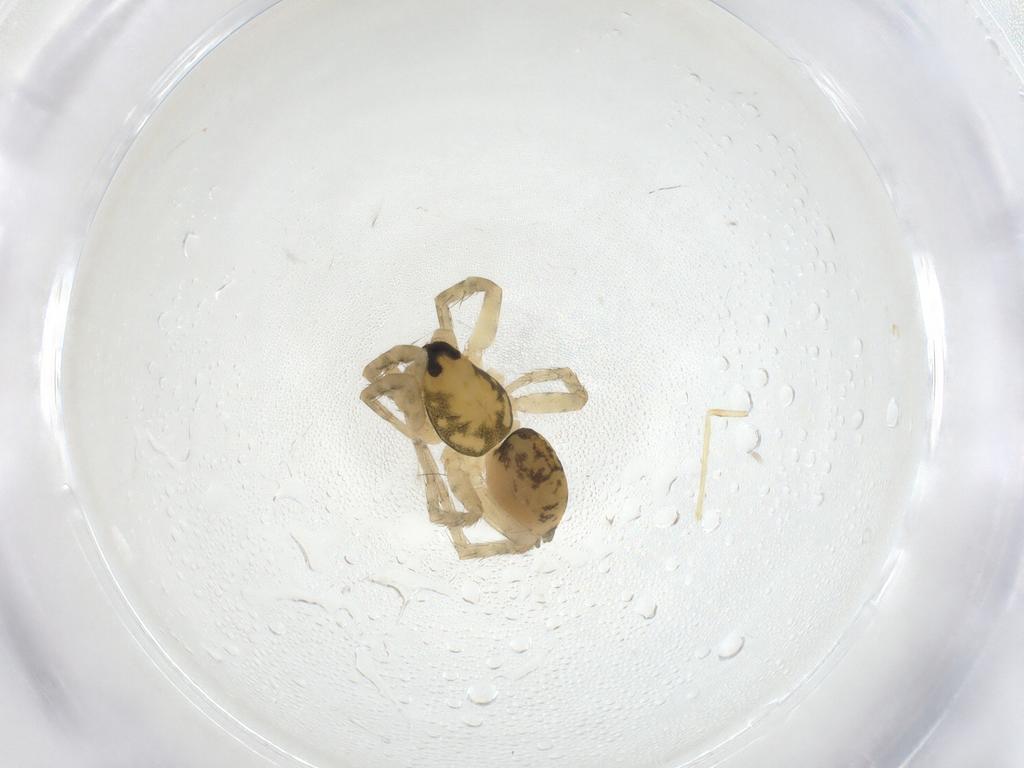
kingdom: Animalia
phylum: Arthropoda
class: Insecta
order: Diptera
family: Chironomidae
